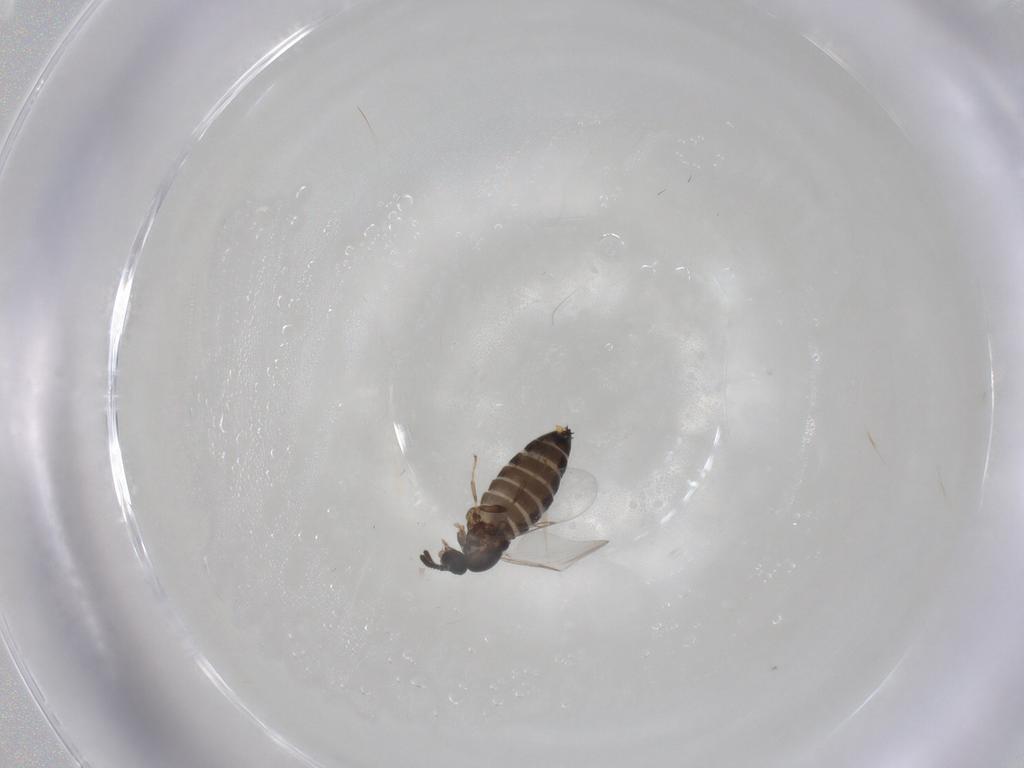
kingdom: Animalia
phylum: Arthropoda
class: Insecta
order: Diptera
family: Scatopsidae
